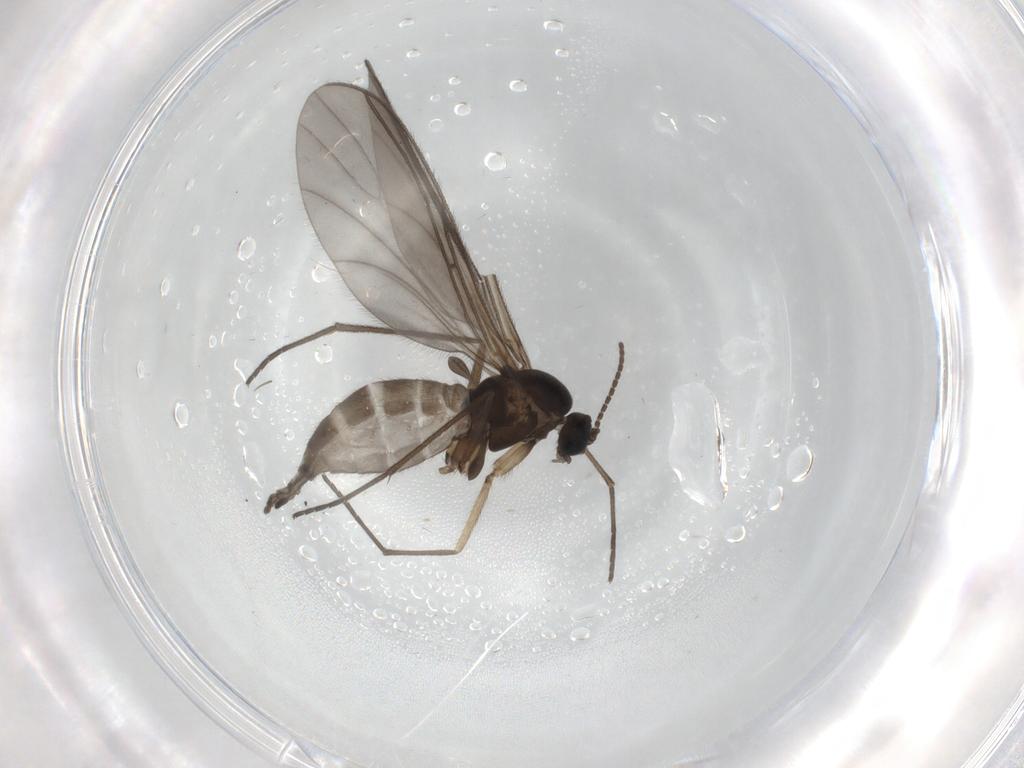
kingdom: Animalia
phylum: Arthropoda
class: Insecta
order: Diptera
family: Sciaridae
